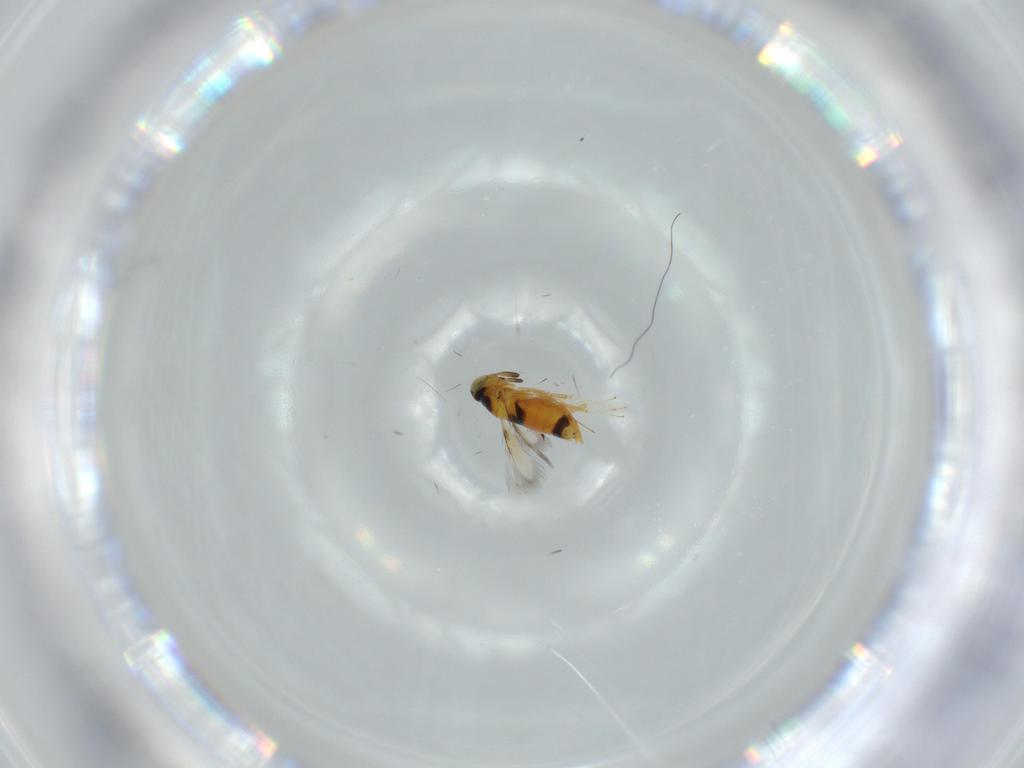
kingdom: Animalia
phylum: Arthropoda
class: Insecta
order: Hymenoptera
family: Signiphoridae
